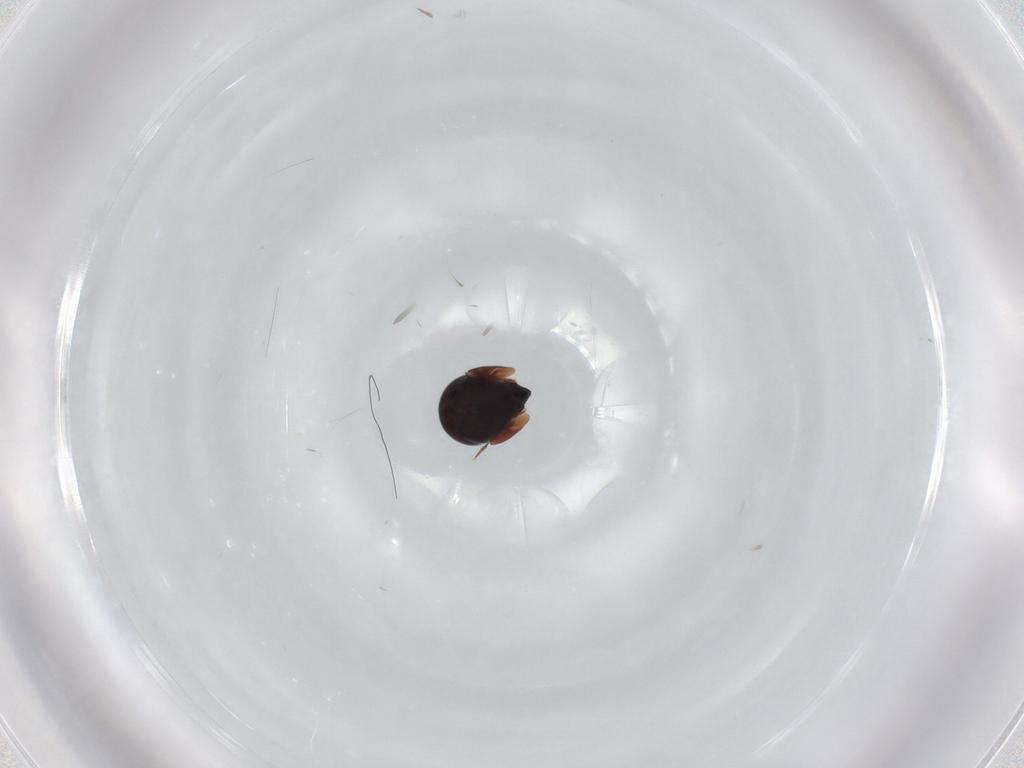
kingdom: Animalia
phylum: Arthropoda
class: Arachnida
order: Sarcoptiformes
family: Ceratozetidae
